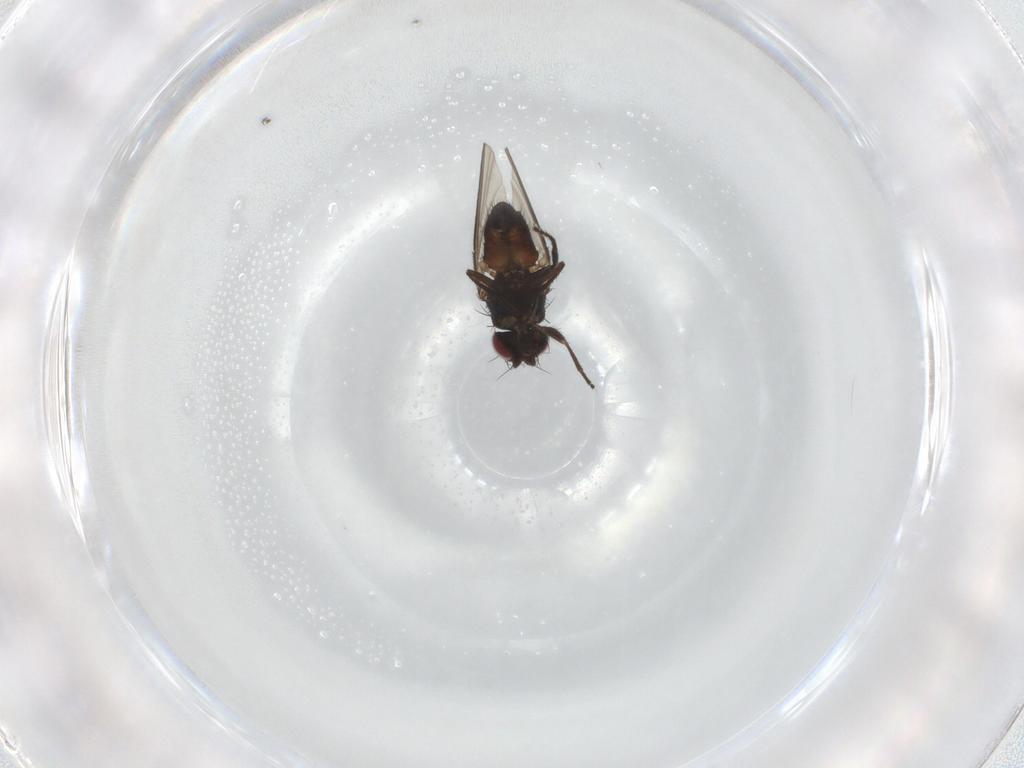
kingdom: Animalia
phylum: Arthropoda
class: Insecta
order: Diptera
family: Carnidae
